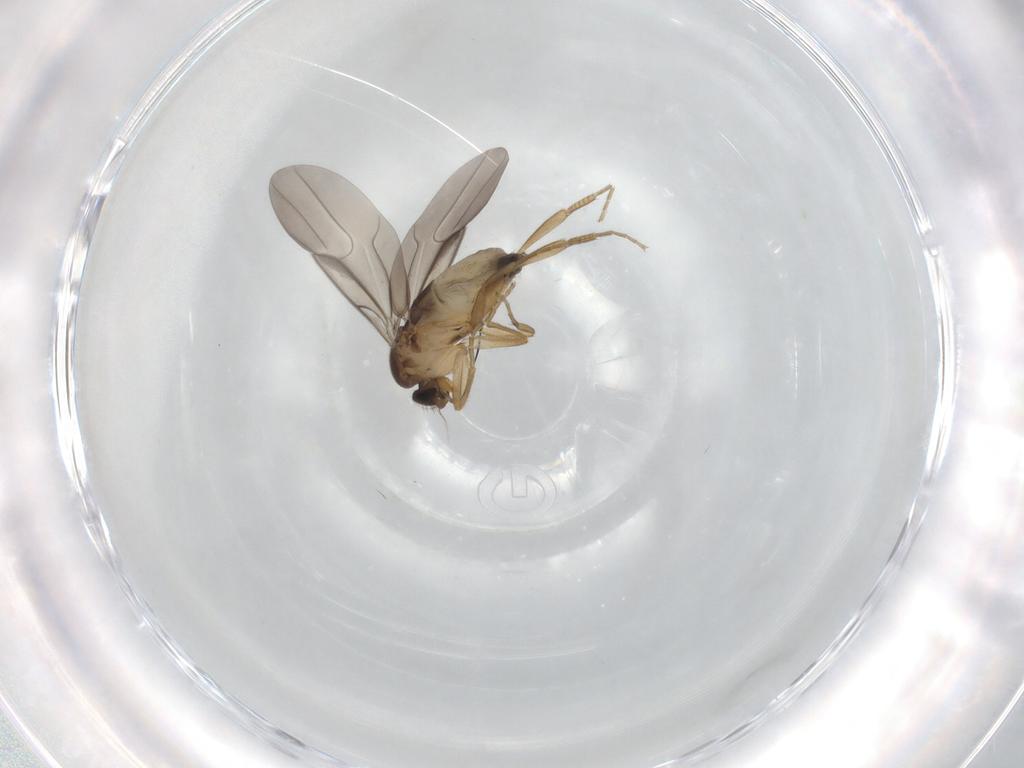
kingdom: Animalia
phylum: Arthropoda
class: Insecta
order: Diptera
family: Phoridae
